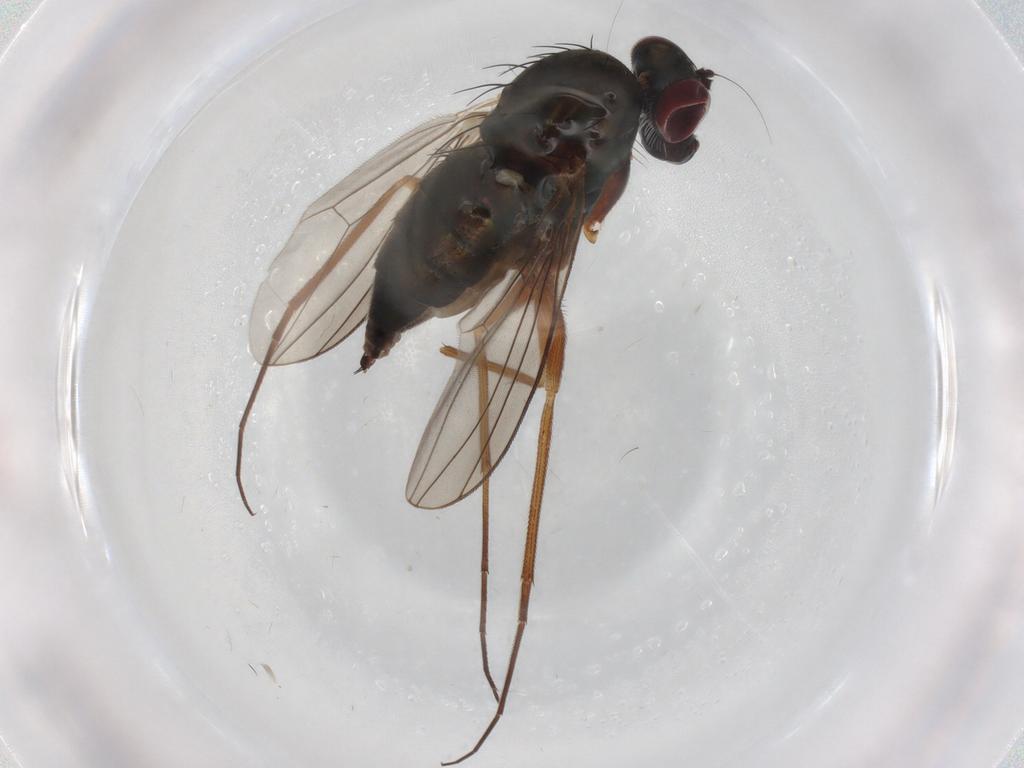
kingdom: Animalia
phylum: Arthropoda
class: Insecta
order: Diptera
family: Dolichopodidae
